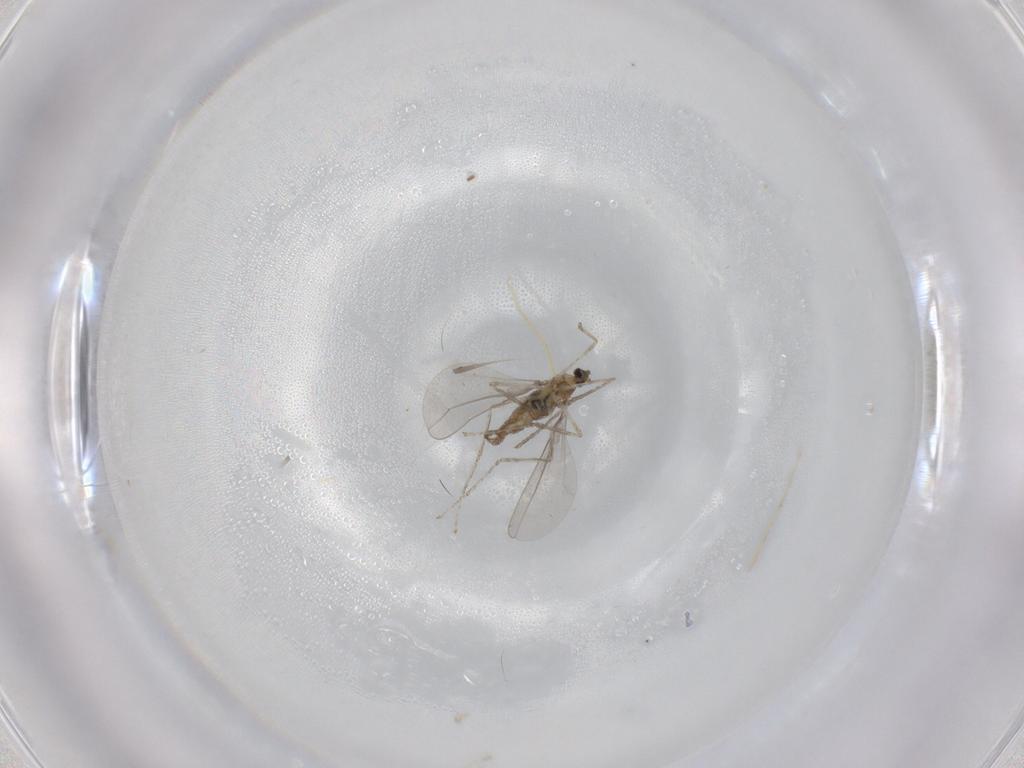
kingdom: Animalia
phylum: Arthropoda
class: Insecta
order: Diptera
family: Cecidomyiidae
